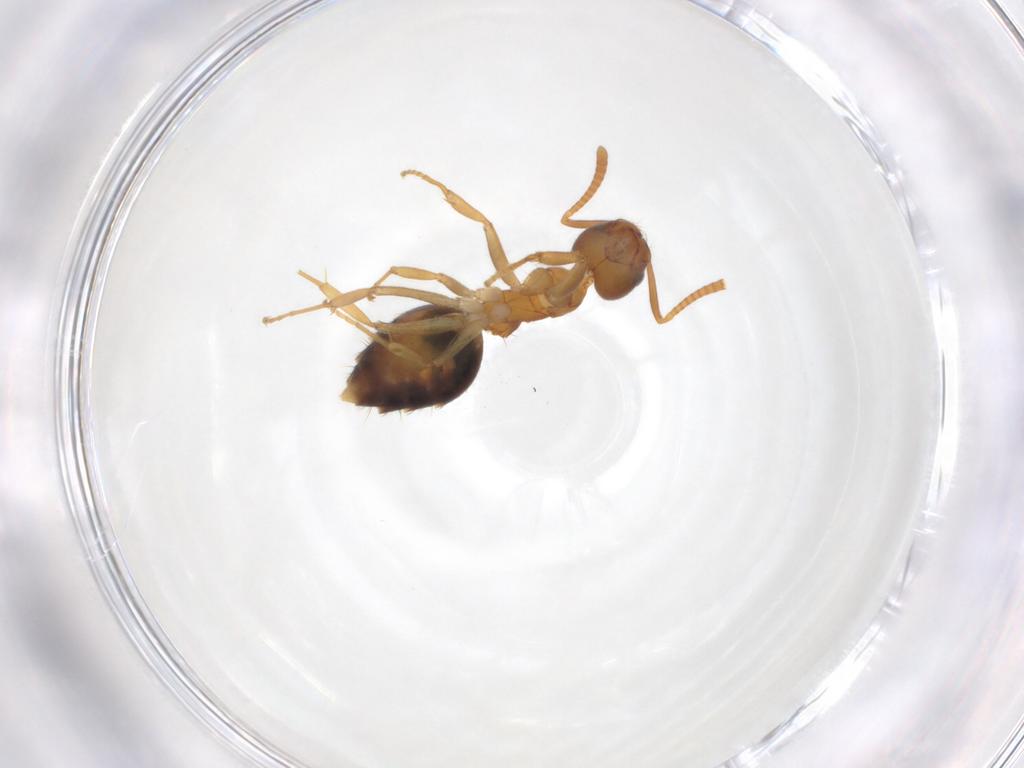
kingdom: Animalia
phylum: Arthropoda
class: Insecta
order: Hymenoptera
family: Formicidae
